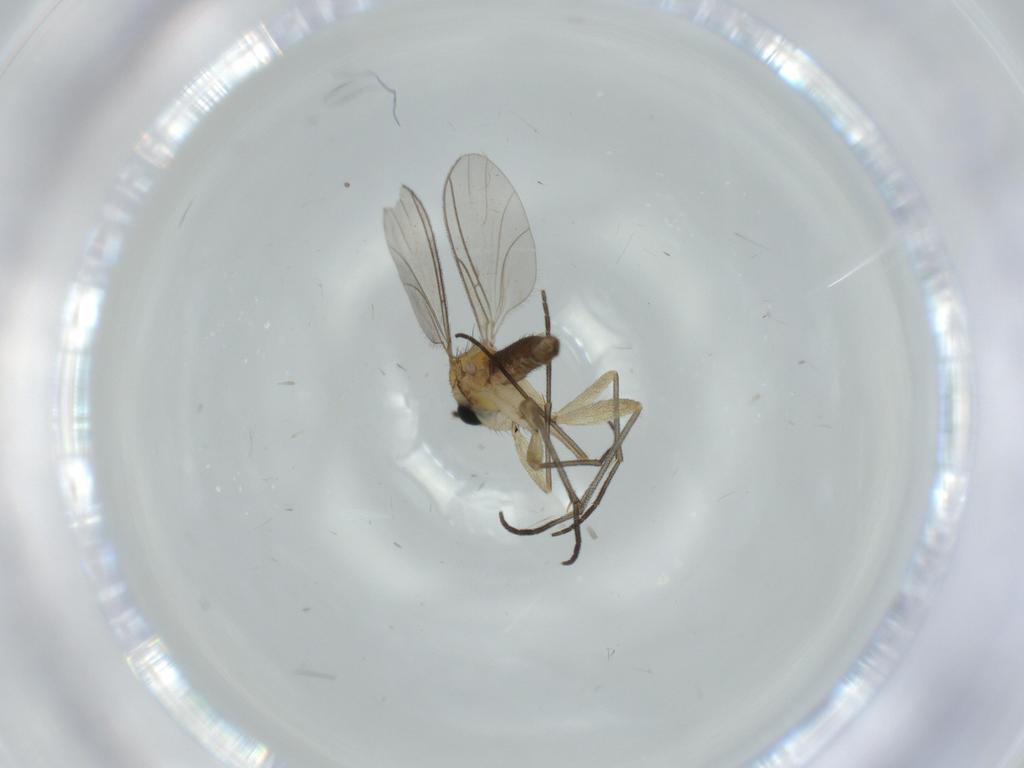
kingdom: Animalia
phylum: Arthropoda
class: Insecta
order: Diptera
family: Sciaridae
